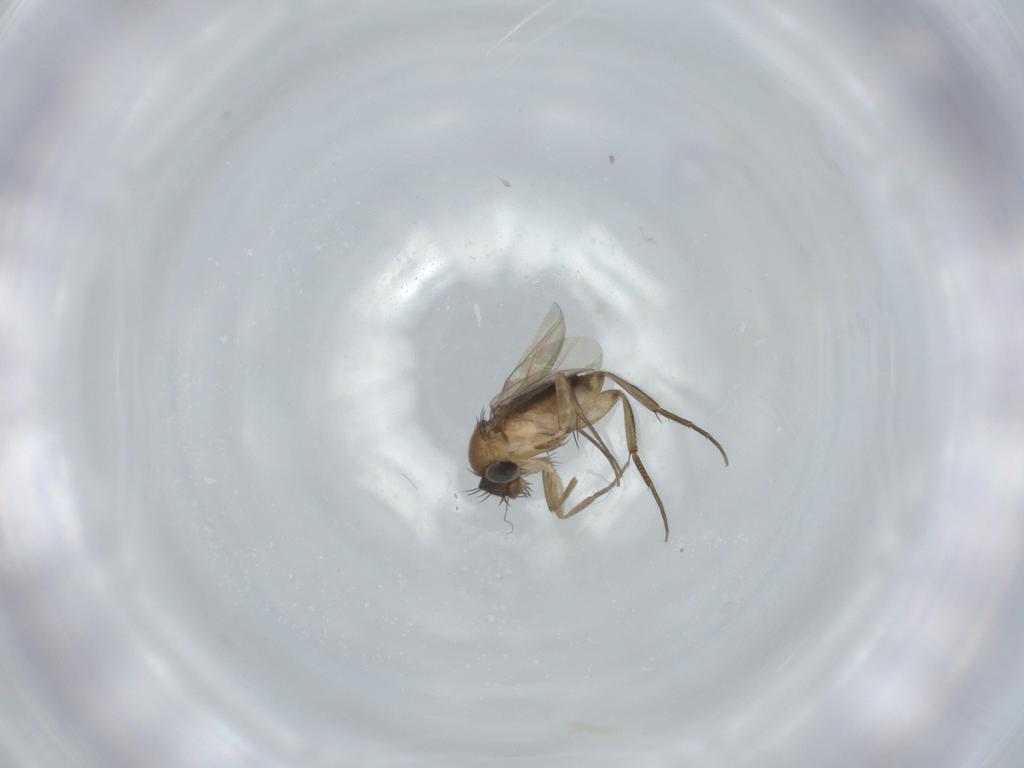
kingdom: Animalia
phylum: Arthropoda
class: Insecta
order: Diptera
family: Phoridae
